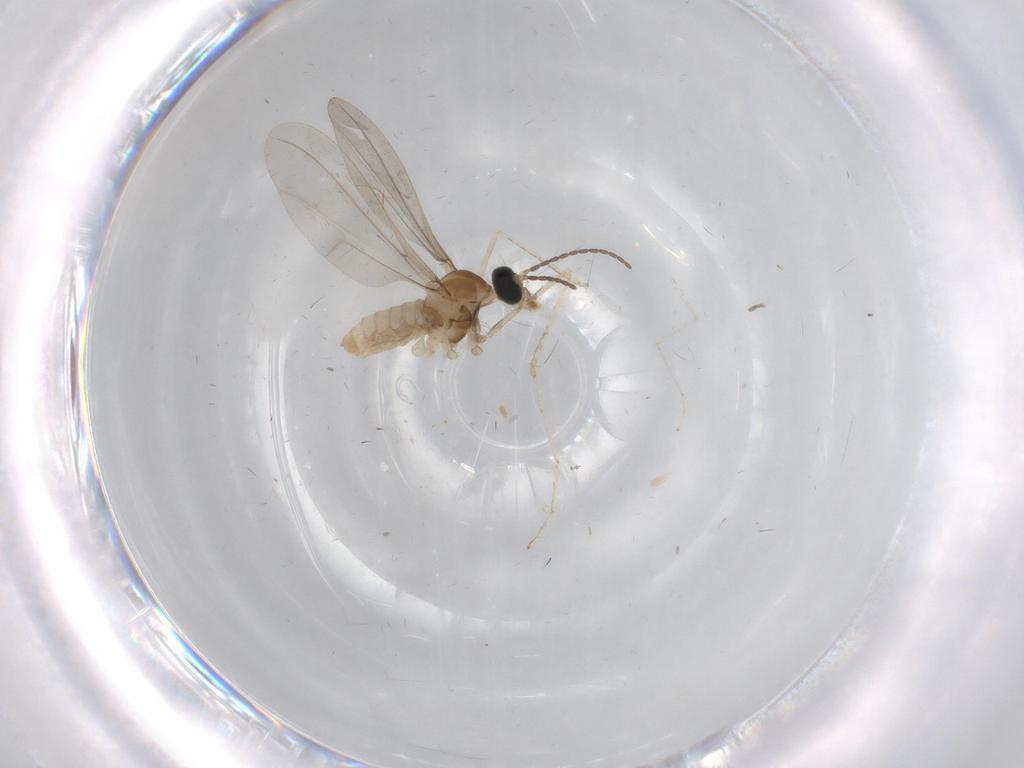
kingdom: Animalia
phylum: Arthropoda
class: Insecta
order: Diptera
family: Cecidomyiidae
